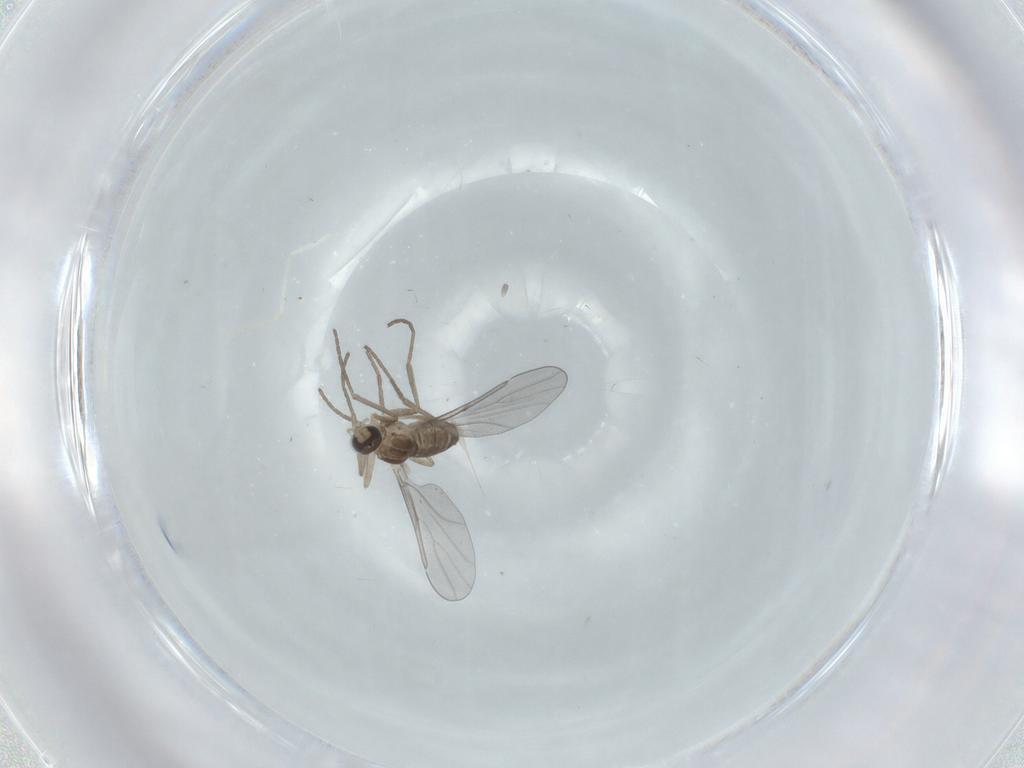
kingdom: Animalia
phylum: Arthropoda
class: Insecta
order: Diptera
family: Cecidomyiidae
